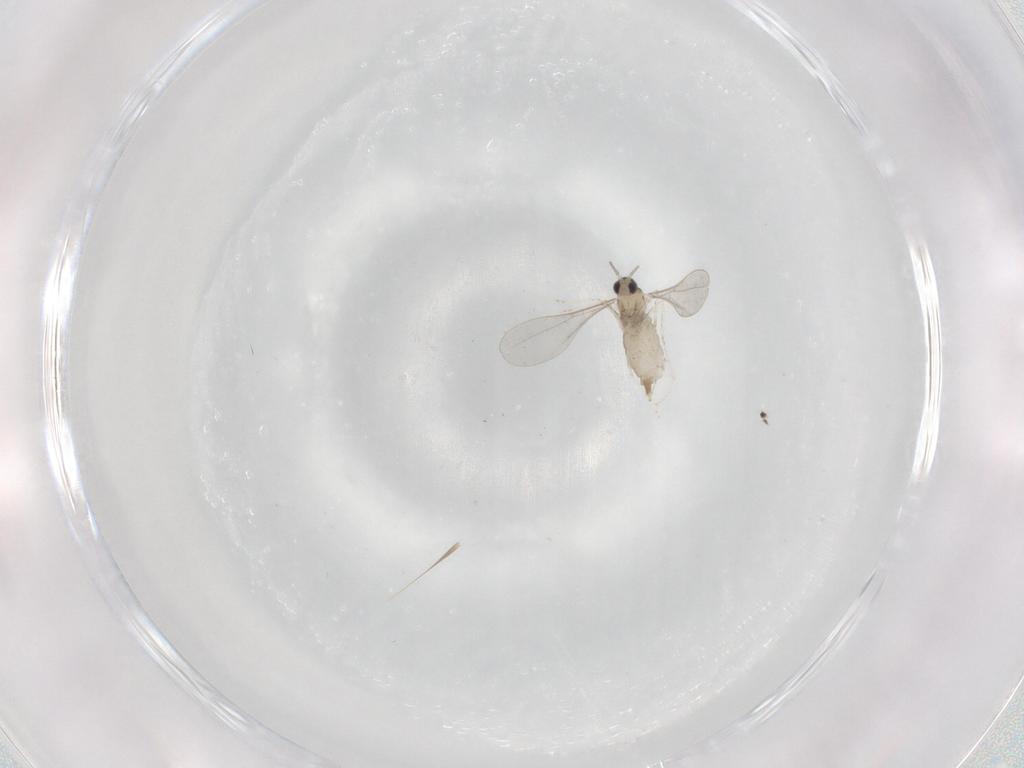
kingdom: Animalia
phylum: Arthropoda
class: Insecta
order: Diptera
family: Cecidomyiidae
